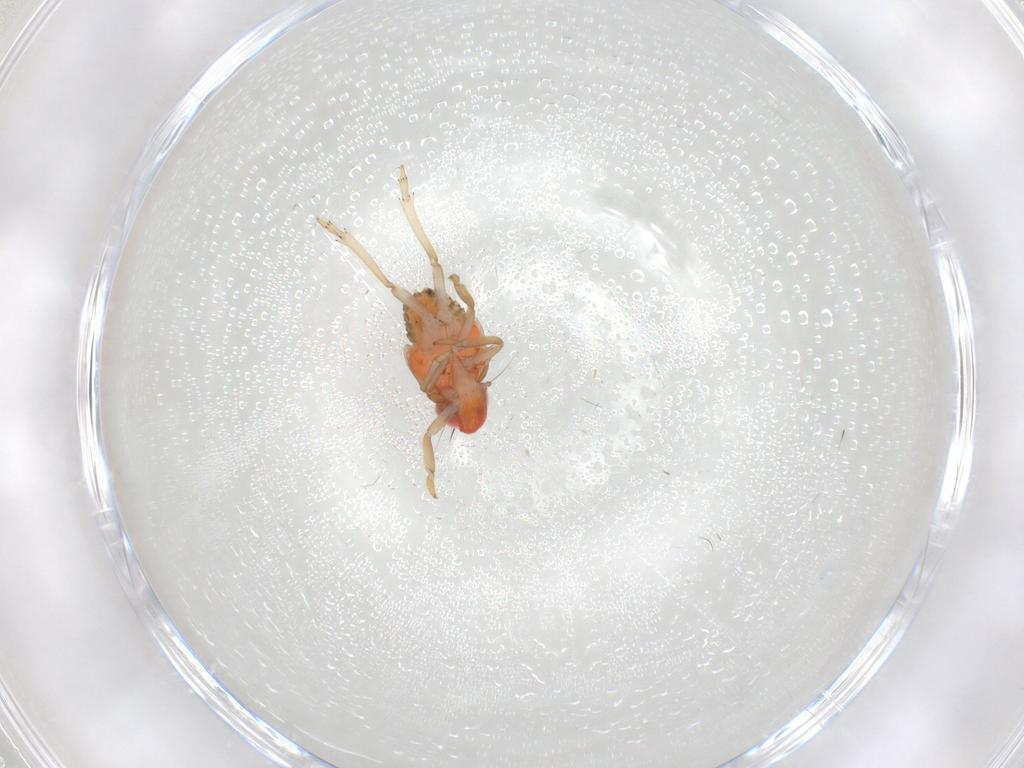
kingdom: Animalia
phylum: Arthropoda
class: Insecta
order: Hemiptera
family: Issidae
